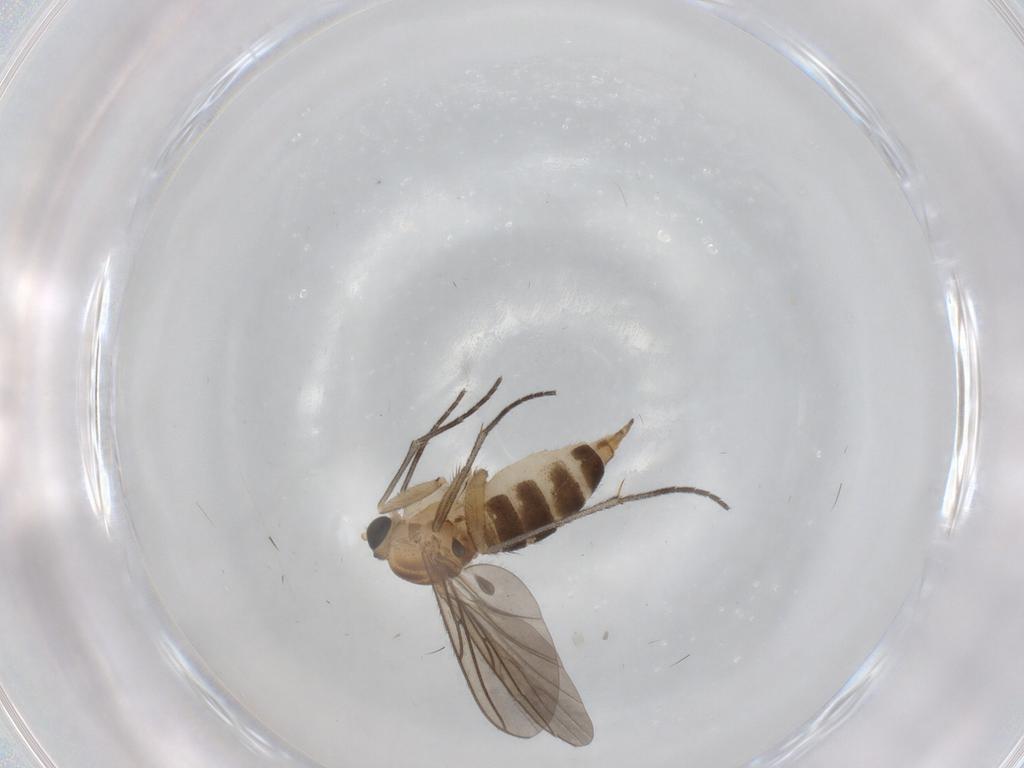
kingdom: Animalia
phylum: Arthropoda
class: Insecta
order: Diptera
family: Sciaridae
